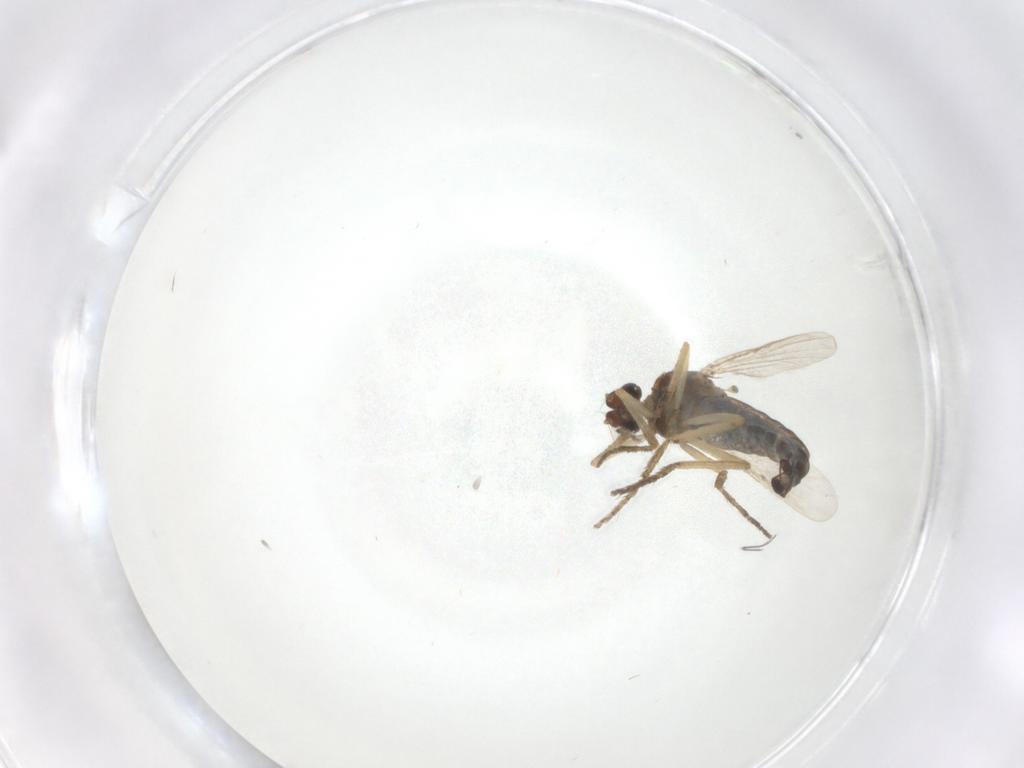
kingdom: Animalia
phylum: Arthropoda
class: Insecta
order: Diptera
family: Ceratopogonidae
